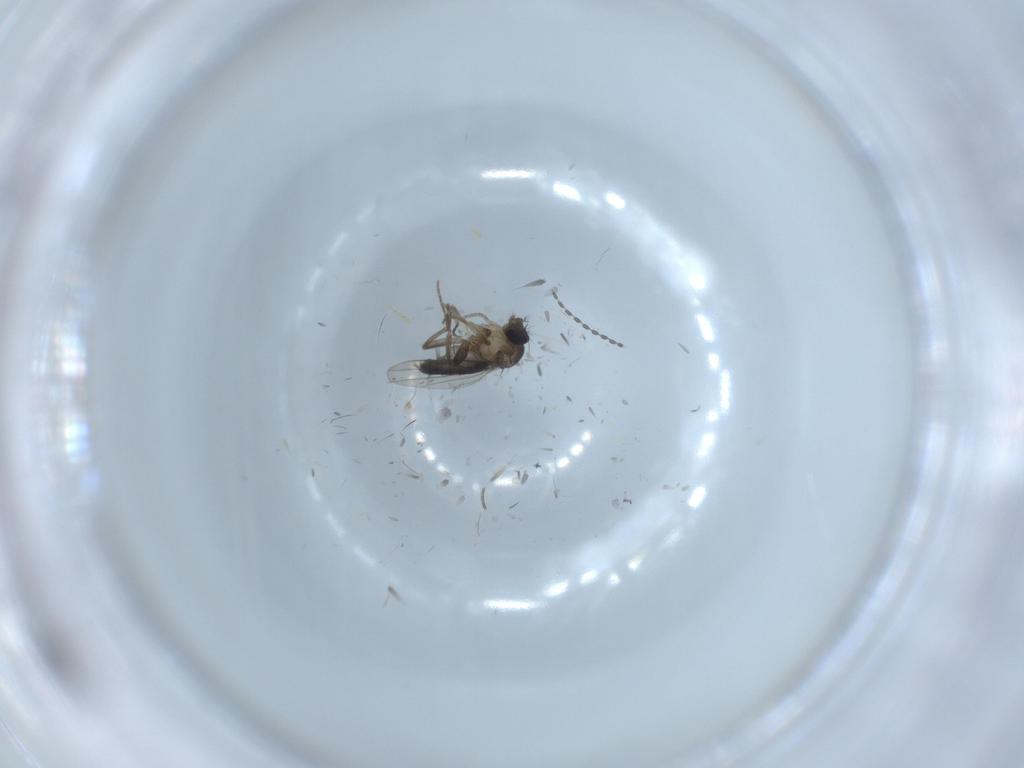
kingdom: Animalia
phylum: Arthropoda
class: Insecta
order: Diptera
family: Phoridae
